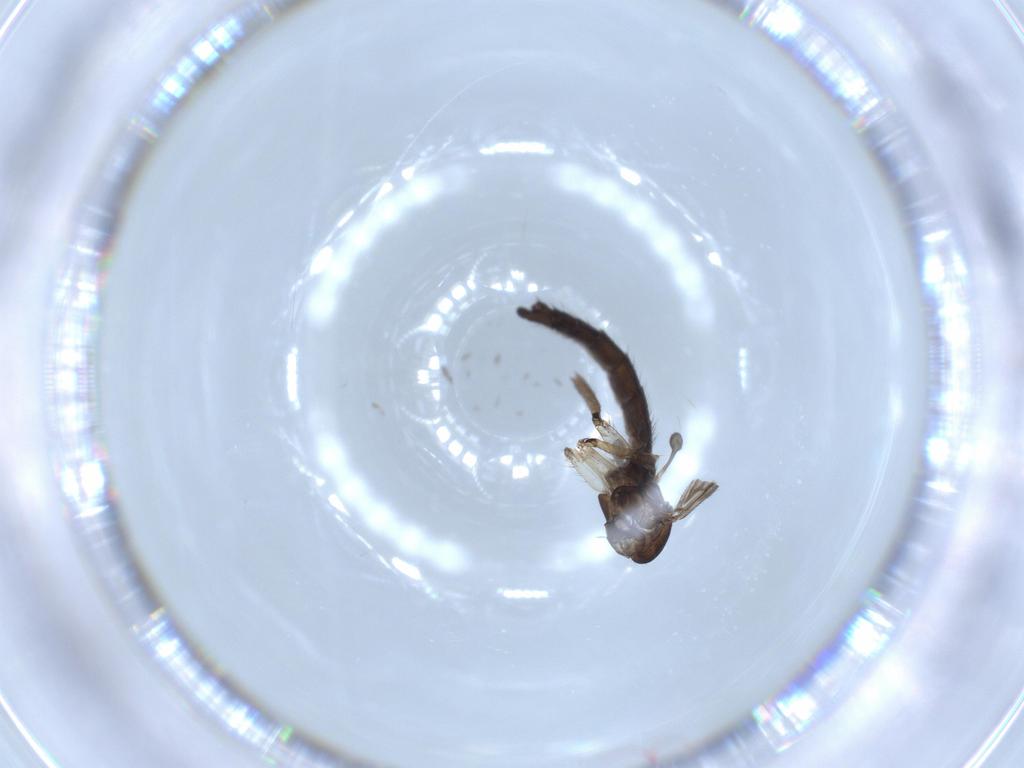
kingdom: Animalia
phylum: Arthropoda
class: Insecta
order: Diptera
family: Sciaridae
